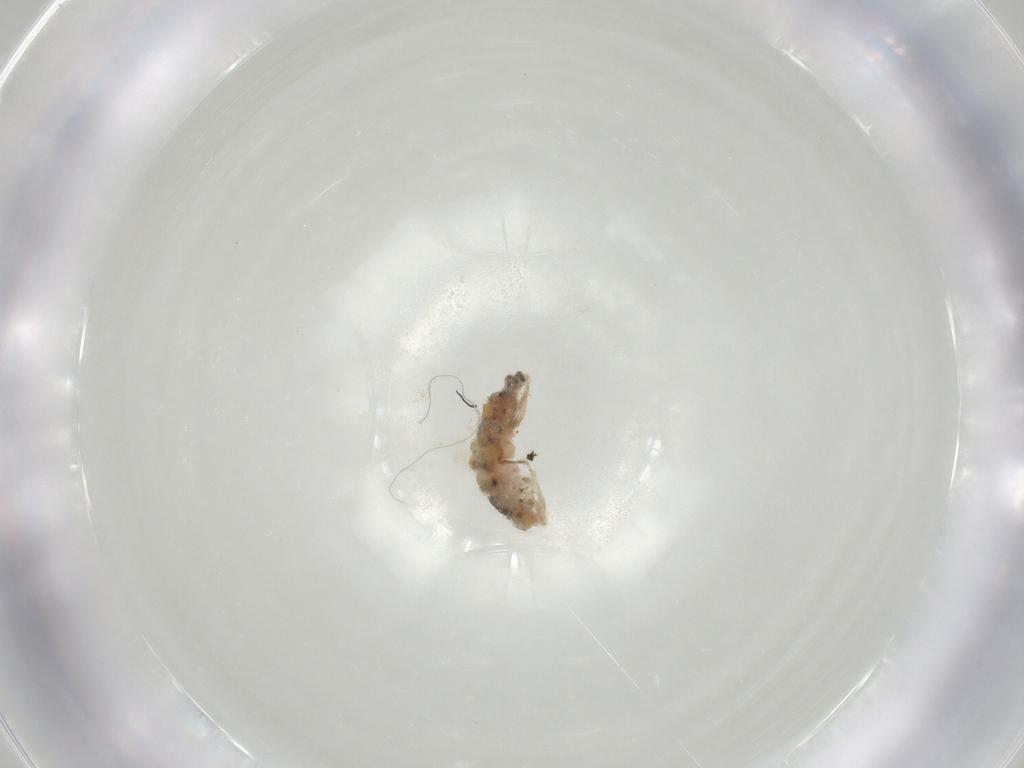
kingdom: Animalia
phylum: Arthropoda
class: Collembola
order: Entomobryomorpha
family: Entomobryidae
